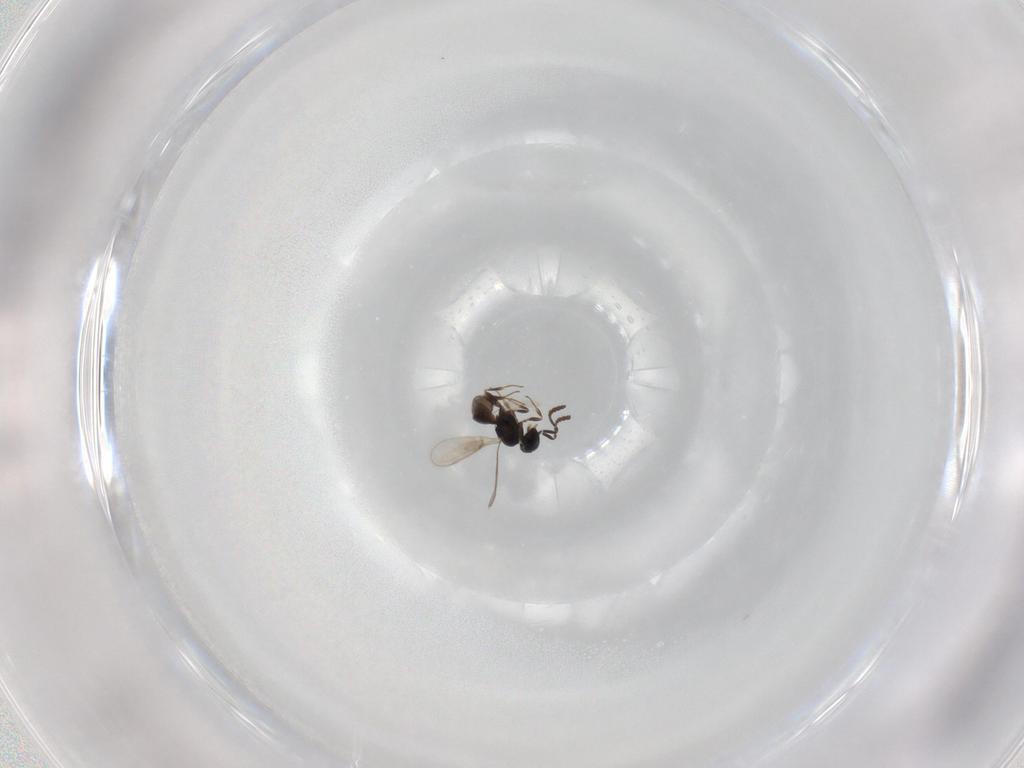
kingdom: Animalia
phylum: Arthropoda
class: Insecta
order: Hymenoptera
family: Scelionidae
